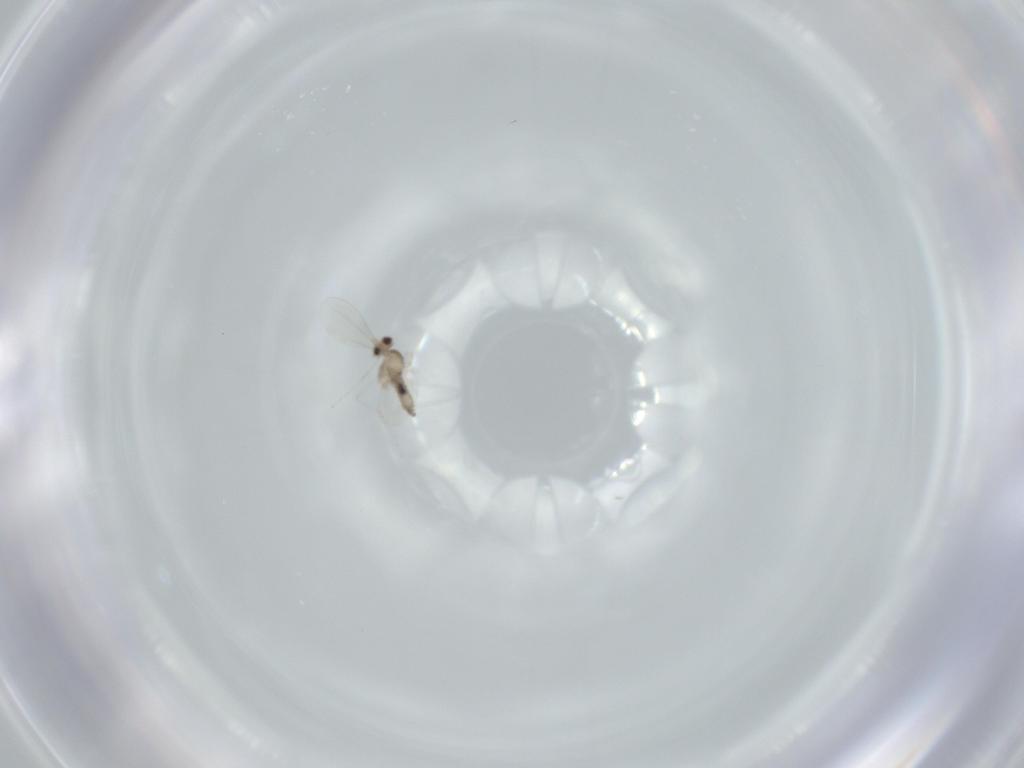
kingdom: Animalia
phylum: Arthropoda
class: Insecta
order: Diptera
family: Cecidomyiidae
